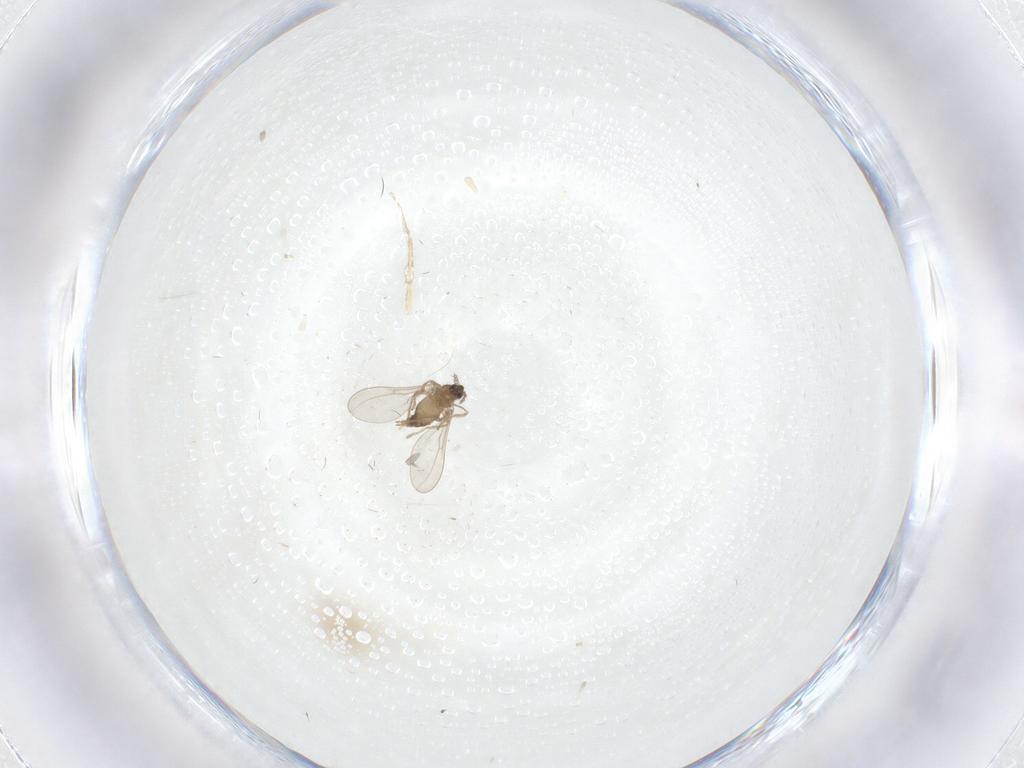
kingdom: Animalia
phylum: Arthropoda
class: Insecta
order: Diptera
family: Cecidomyiidae
